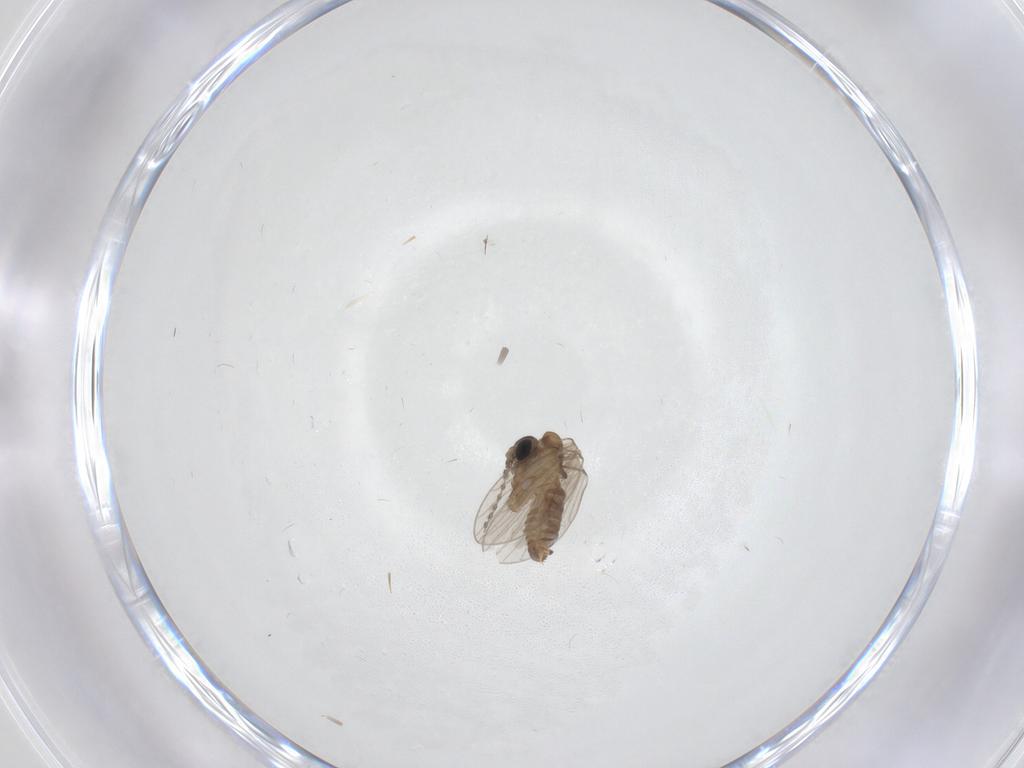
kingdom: Animalia
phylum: Arthropoda
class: Insecta
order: Diptera
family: Psychodidae
